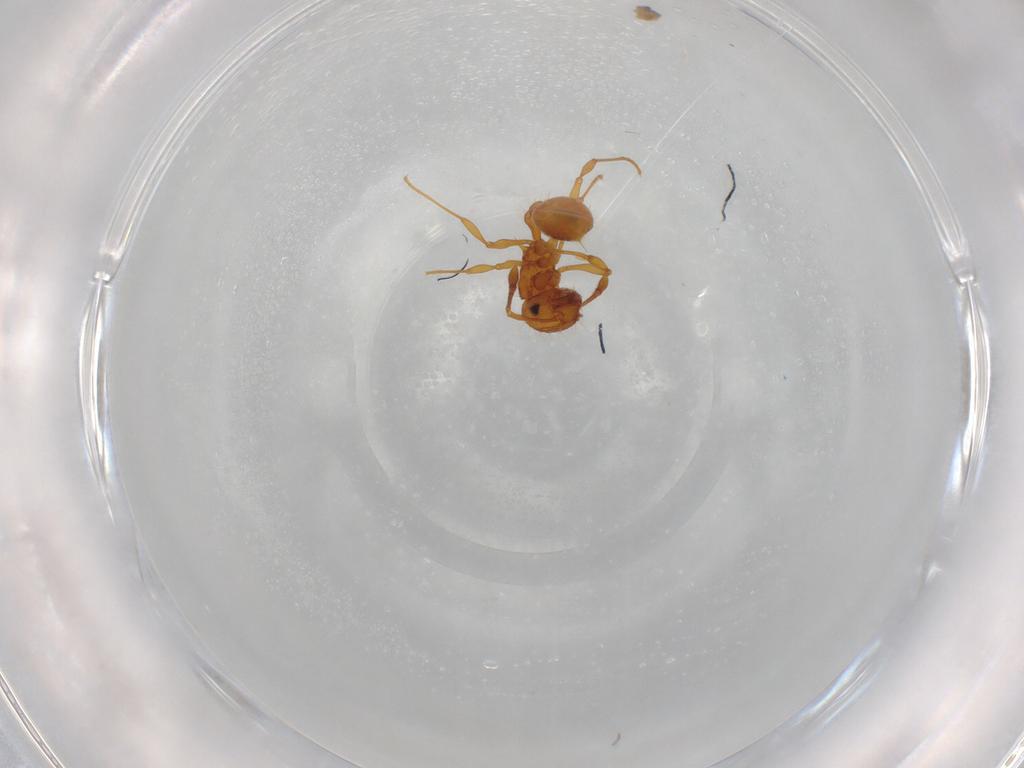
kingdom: Animalia
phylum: Arthropoda
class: Insecta
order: Hymenoptera
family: Formicidae
